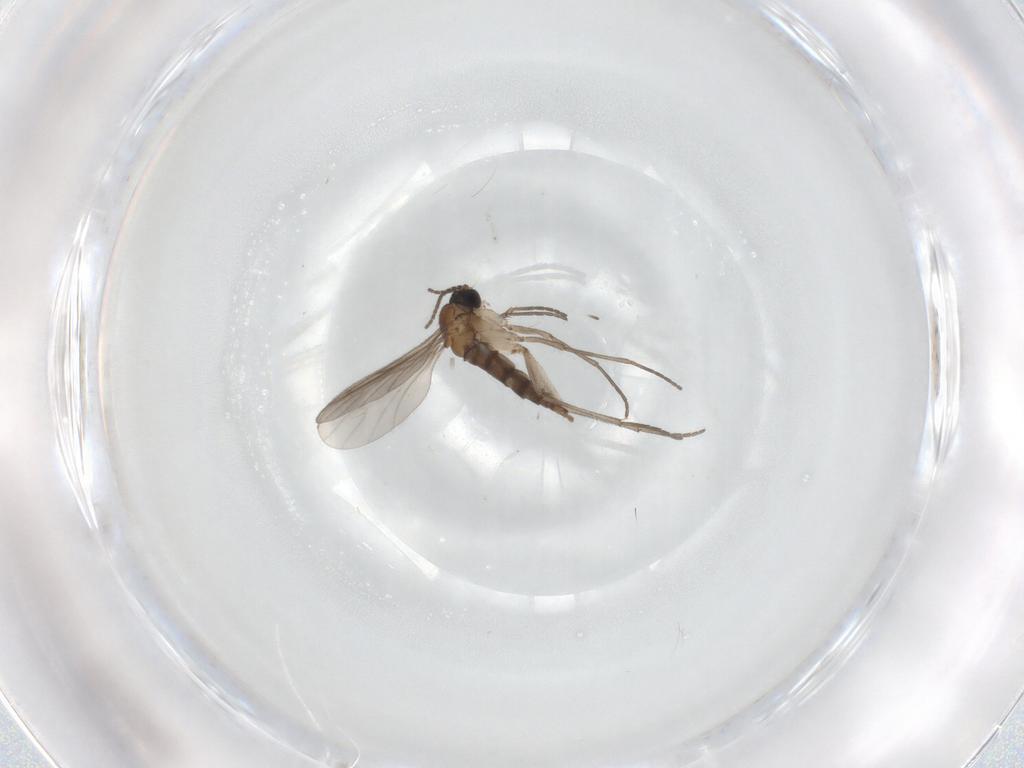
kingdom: Animalia
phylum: Arthropoda
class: Insecta
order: Diptera
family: Sciaridae
